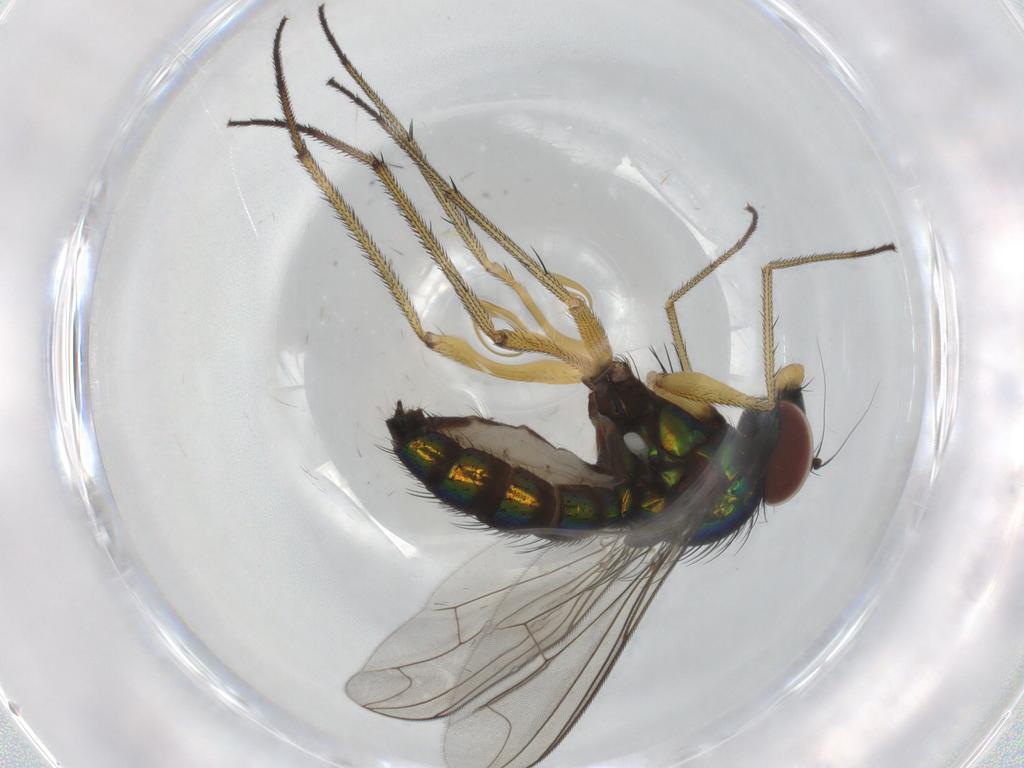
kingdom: Animalia
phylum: Arthropoda
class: Insecta
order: Diptera
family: Dolichopodidae
